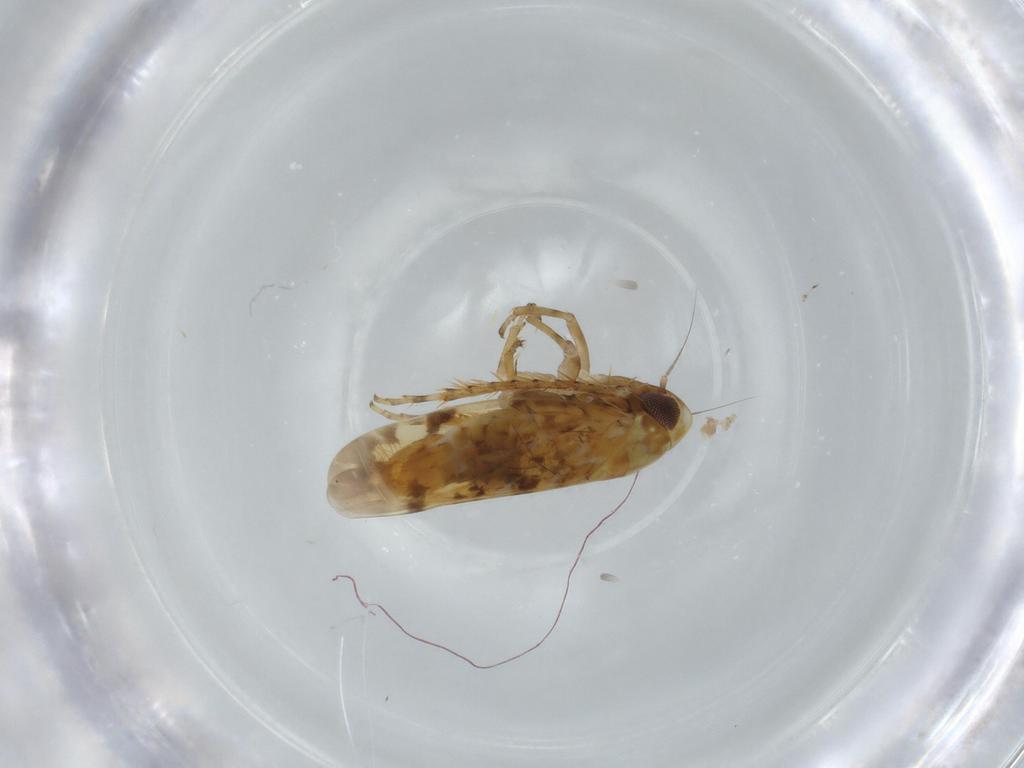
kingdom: Animalia
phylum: Arthropoda
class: Insecta
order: Hemiptera
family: Cicadellidae
